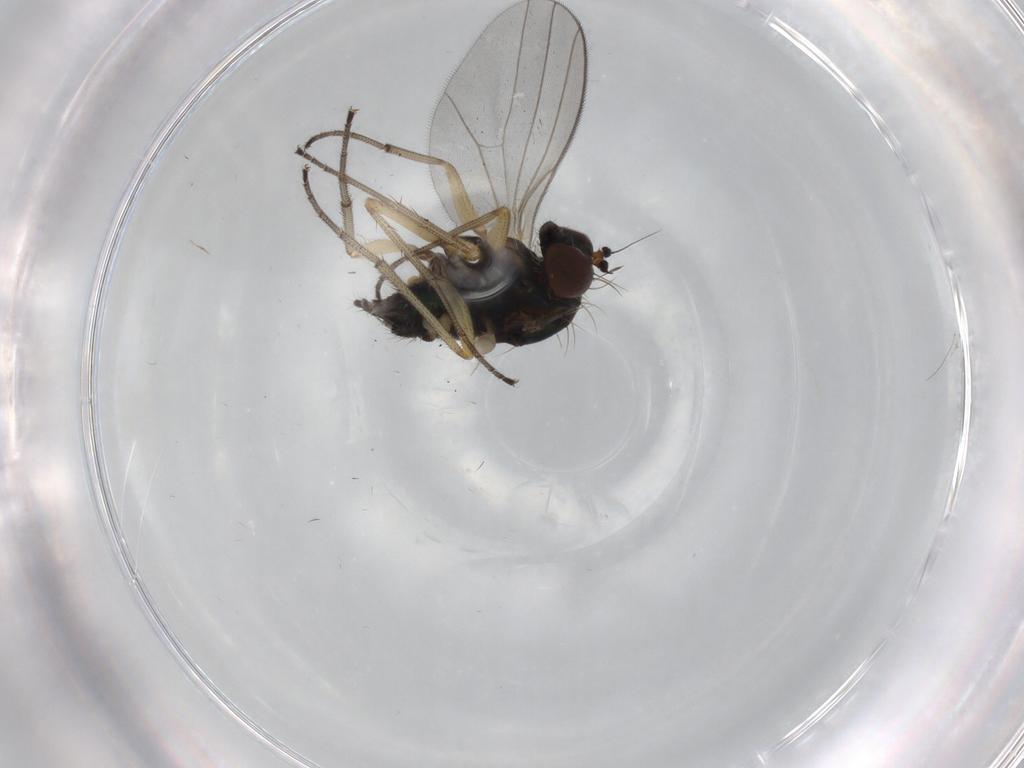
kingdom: Animalia
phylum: Arthropoda
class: Insecta
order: Diptera
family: Dolichopodidae
